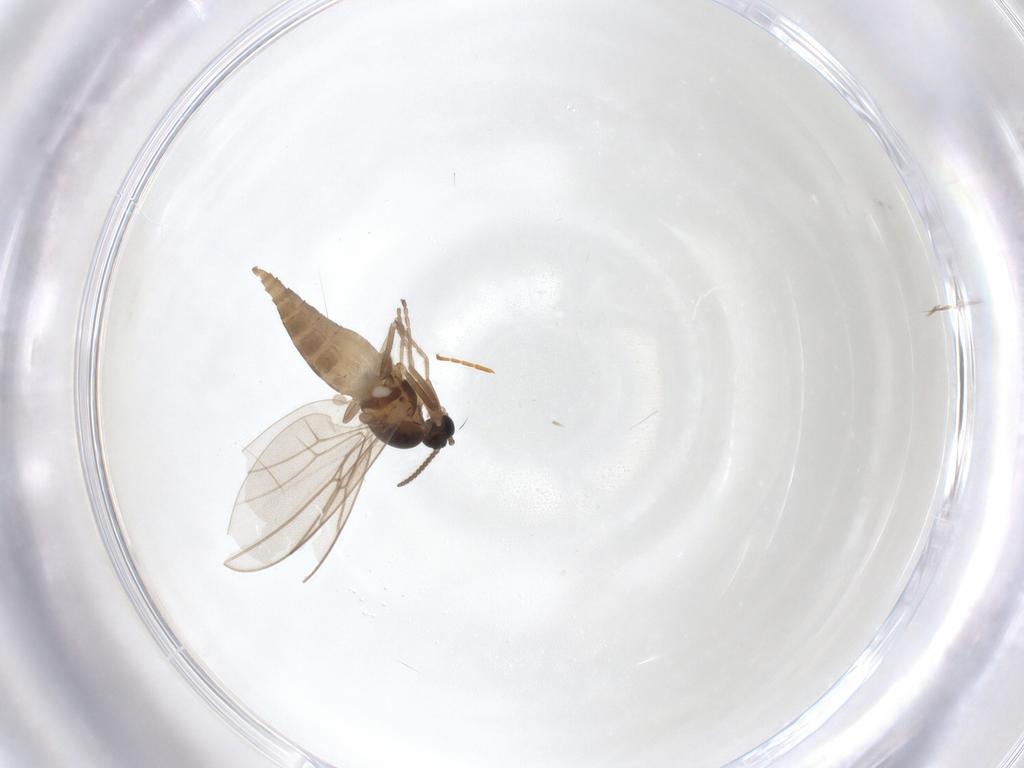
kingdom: Animalia
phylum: Arthropoda
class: Insecta
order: Diptera
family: Cecidomyiidae
